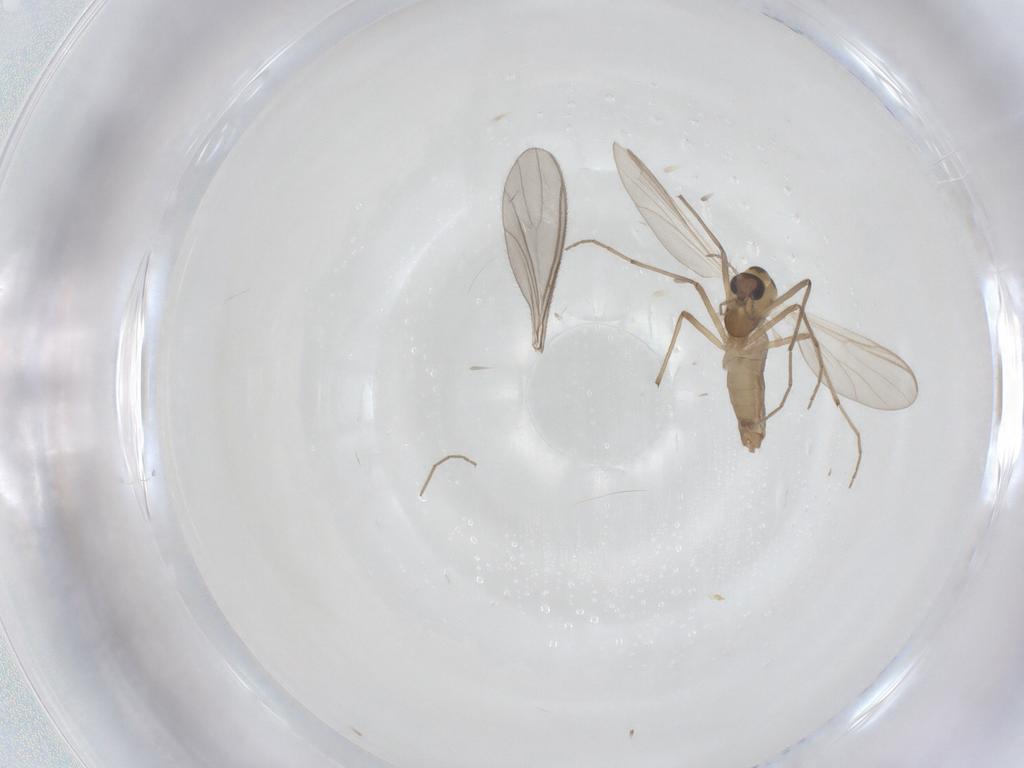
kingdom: Animalia
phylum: Arthropoda
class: Insecta
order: Diptera
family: Chironomidae
